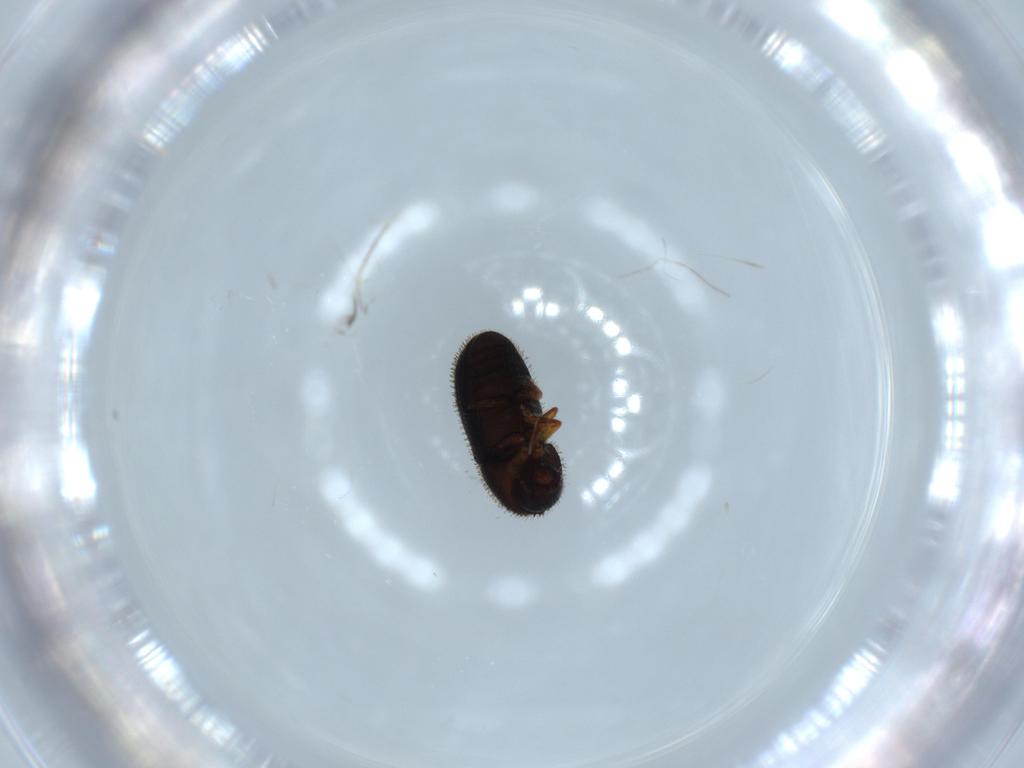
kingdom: Animalia
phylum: Arthropoda
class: Insecta
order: Coleoptera
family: Curculionidae
